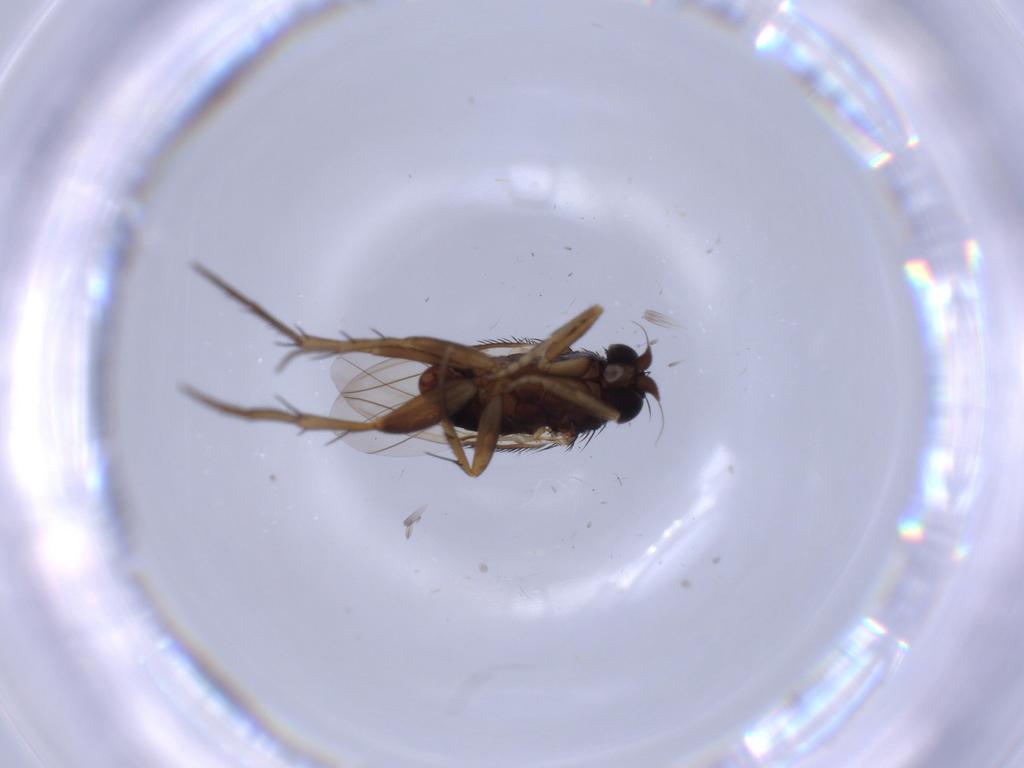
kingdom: Animalia
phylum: Arthropoda
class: Insecta
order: Diptera
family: Phoridae
